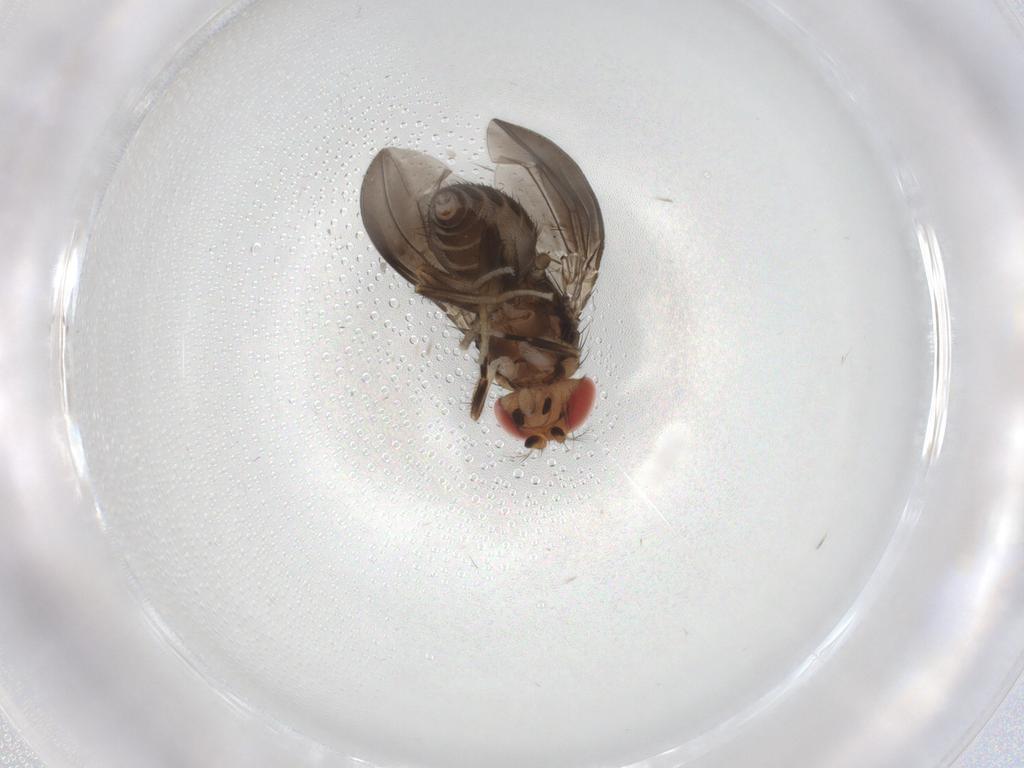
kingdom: Animalia
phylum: Arthropoda
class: Insecta
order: Diptera
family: Drosophilidae
